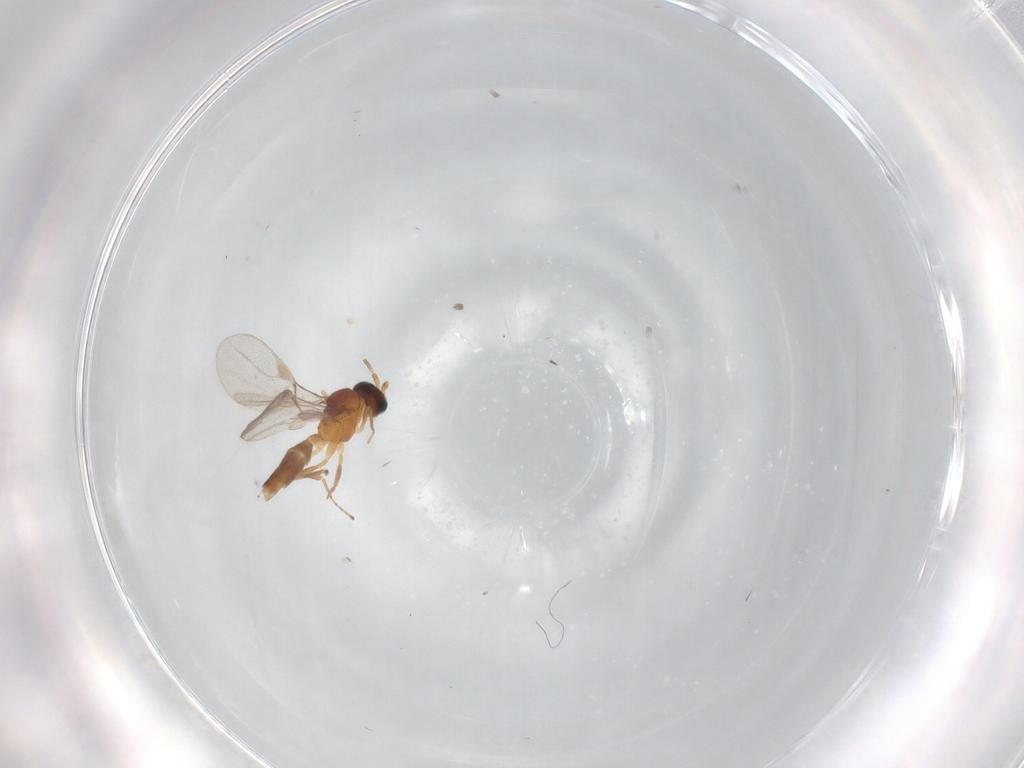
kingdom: Animalia
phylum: Arthropoda
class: Insecta
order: Hymenoptera
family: Braconidae
